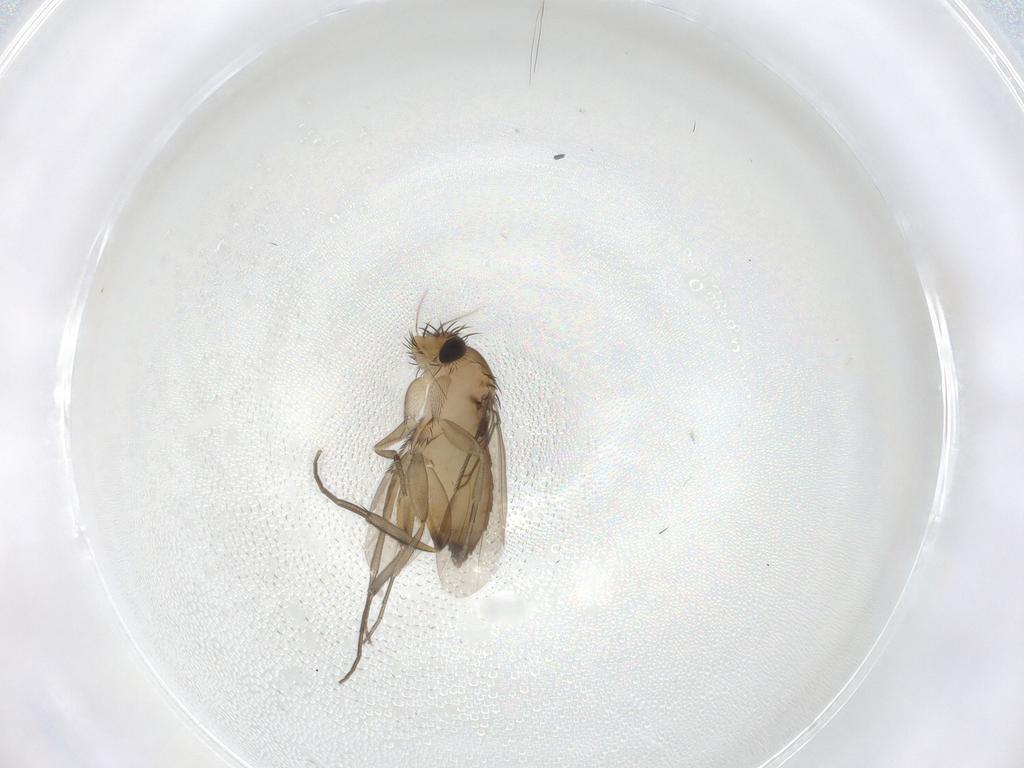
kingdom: Animalia
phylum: Arthropoda
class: Insecta
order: Diptera
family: Phoridae
